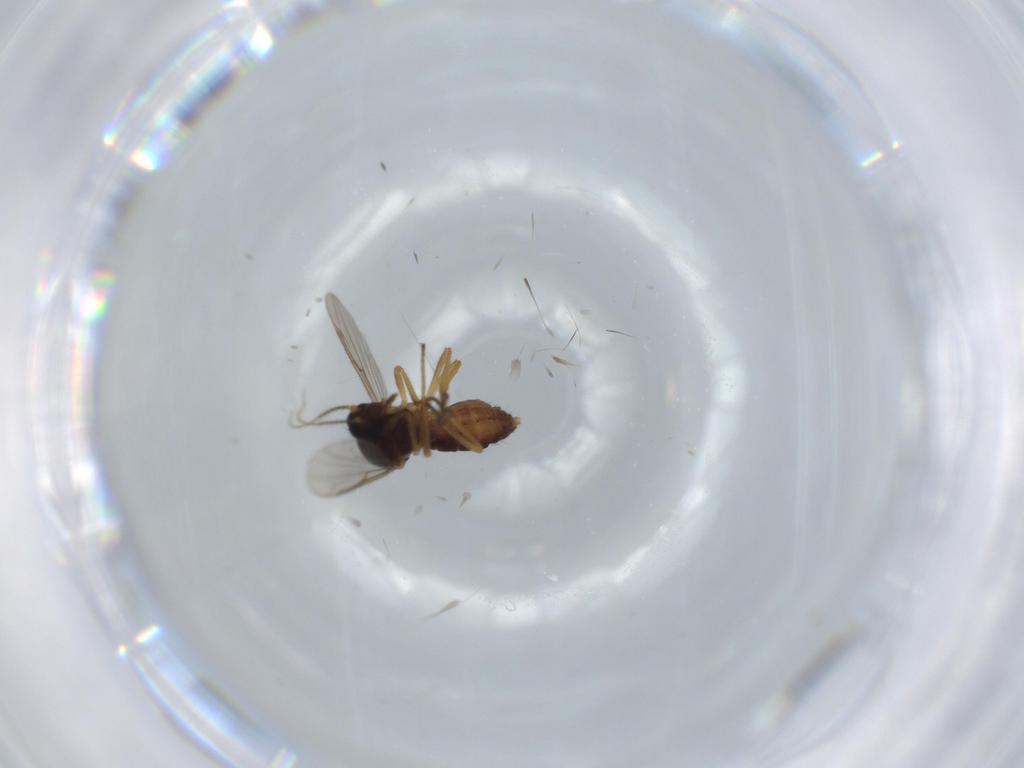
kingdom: Animalia
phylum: Arthropoda
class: Insecta
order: Diptera
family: Ceratopogonidae
